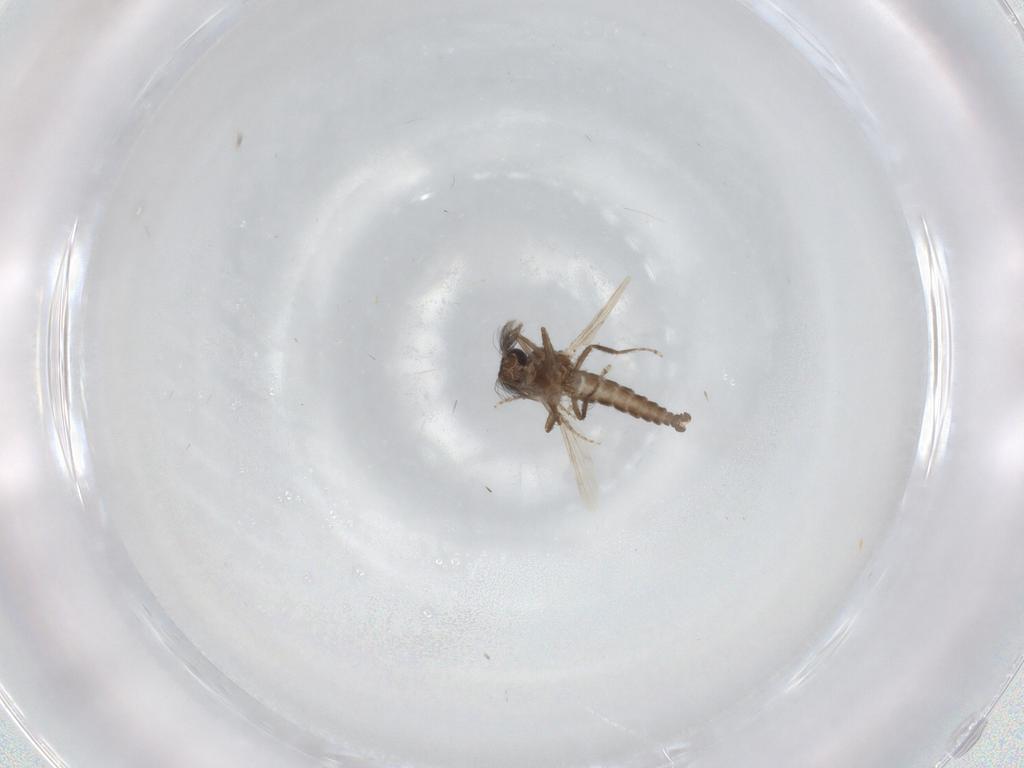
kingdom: Animalia
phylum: Arthropoda
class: Insecta
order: Diptera
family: Ceratopogonidae
